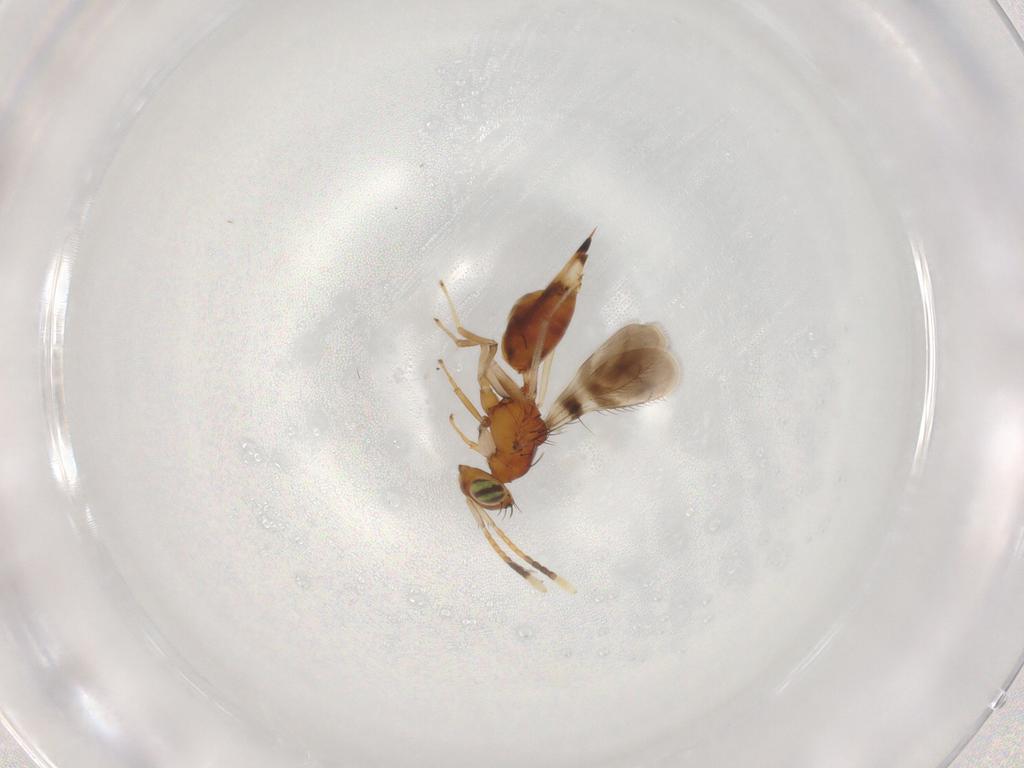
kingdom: Animalia
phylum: Arthropoda
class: Insecta
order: Hymenoptera
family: Diparidae
